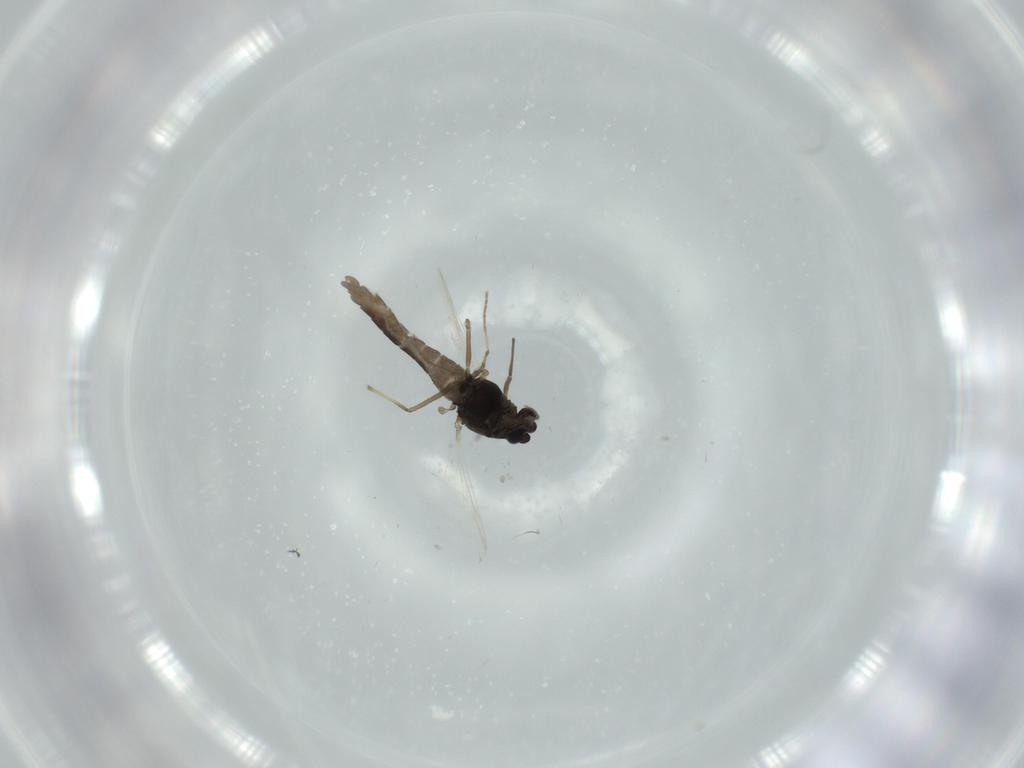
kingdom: Animalia
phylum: Arthropoda
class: Insecta
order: Diptera
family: Chironomidae
